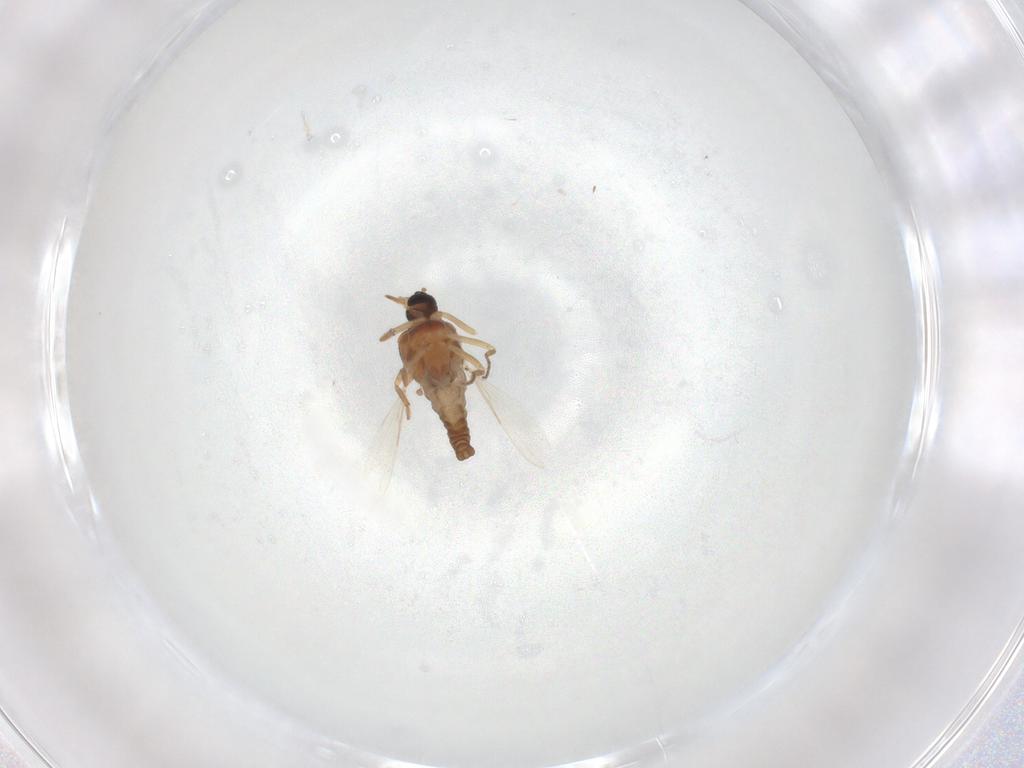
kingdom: Animalia
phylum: Arthropoda
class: Insecta
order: Diptera
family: Ceratopogonidae
